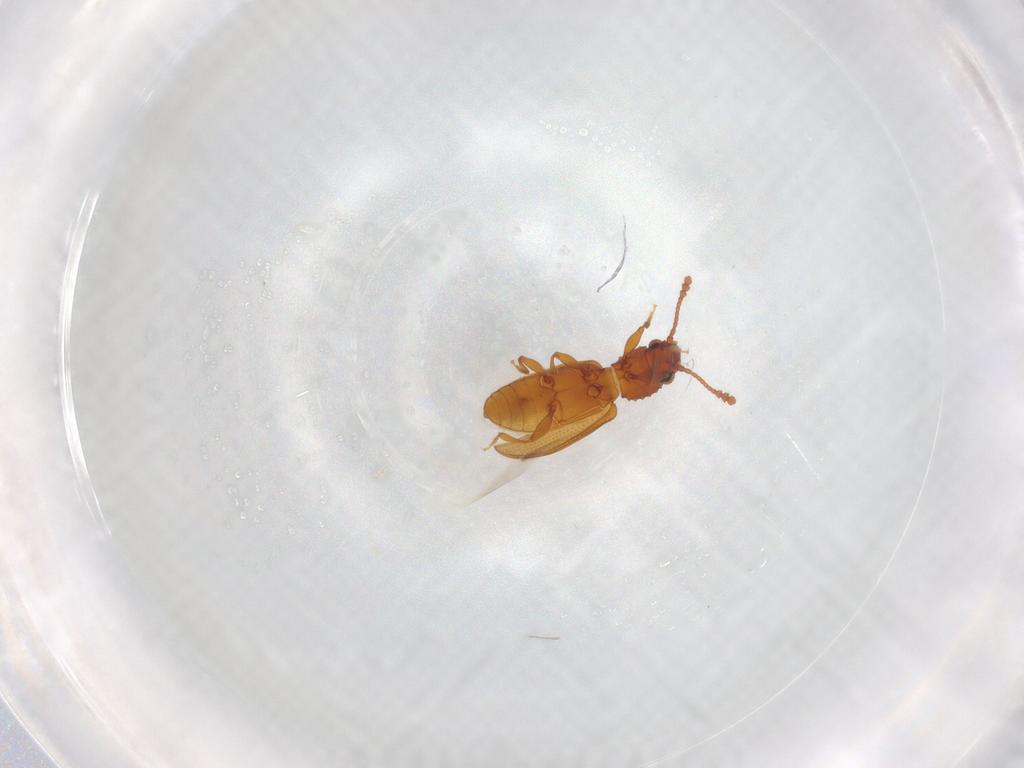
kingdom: Animalia
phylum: Arthropoda
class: Insecta
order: Coleoptera
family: Silvanidae
